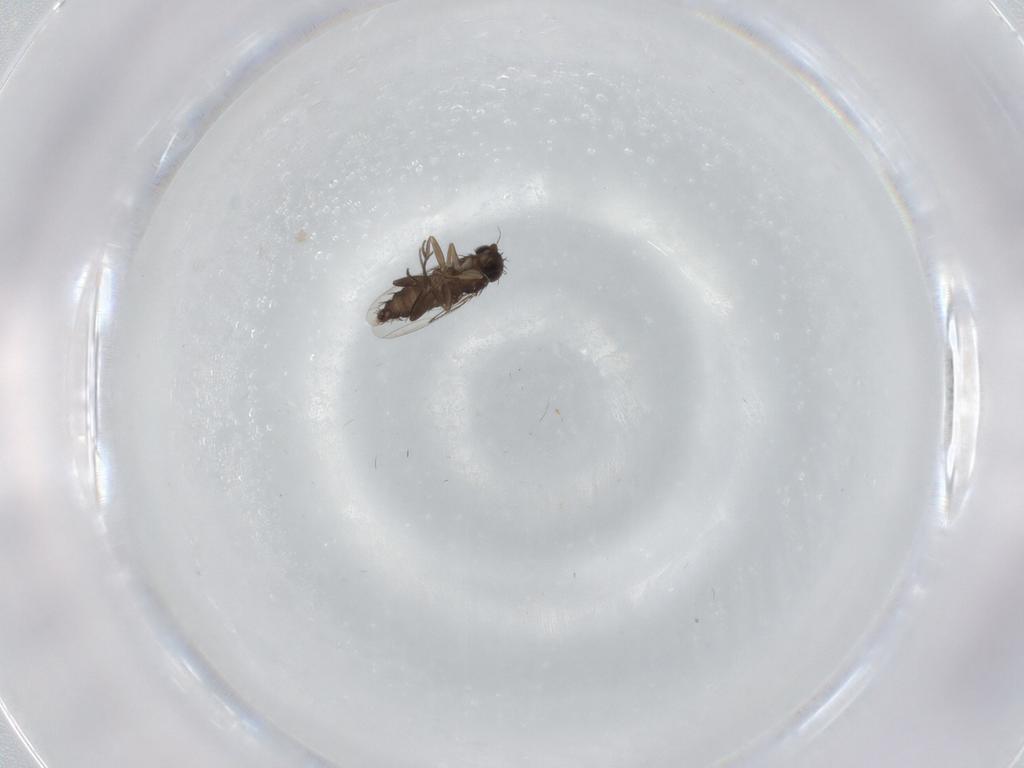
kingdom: Animalia
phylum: Arthropoda
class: Insecta
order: Diptera
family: Phoridae
